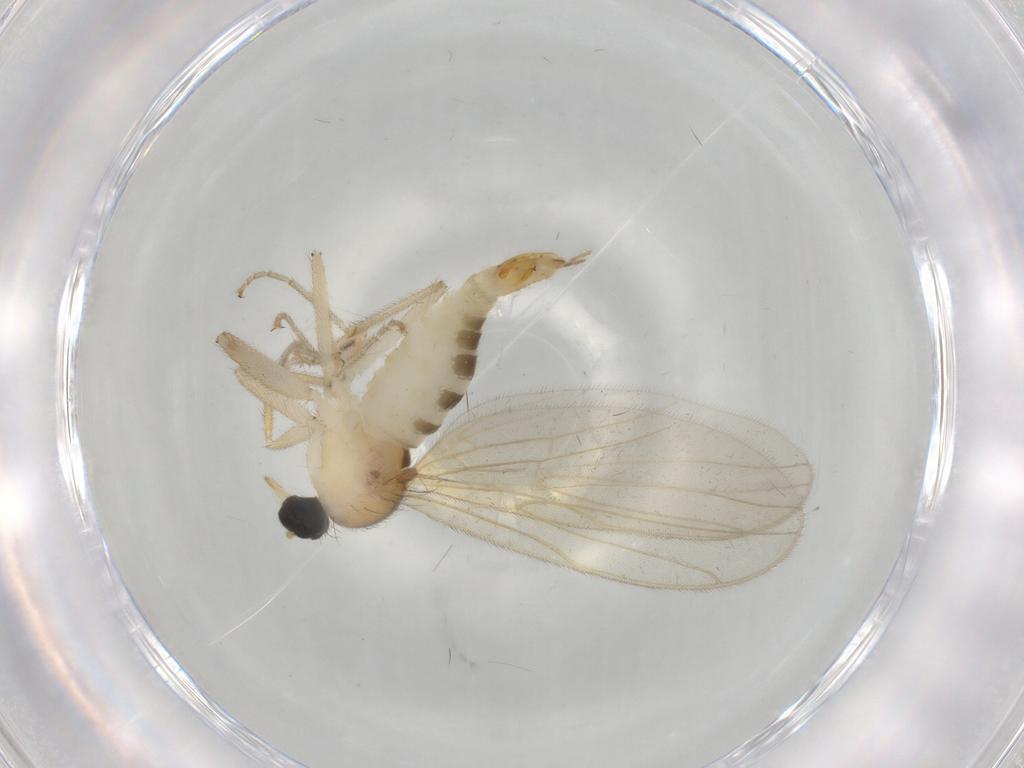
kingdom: Animalia
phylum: Arthropoda
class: Insecta
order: Diptera
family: Hybotidae
